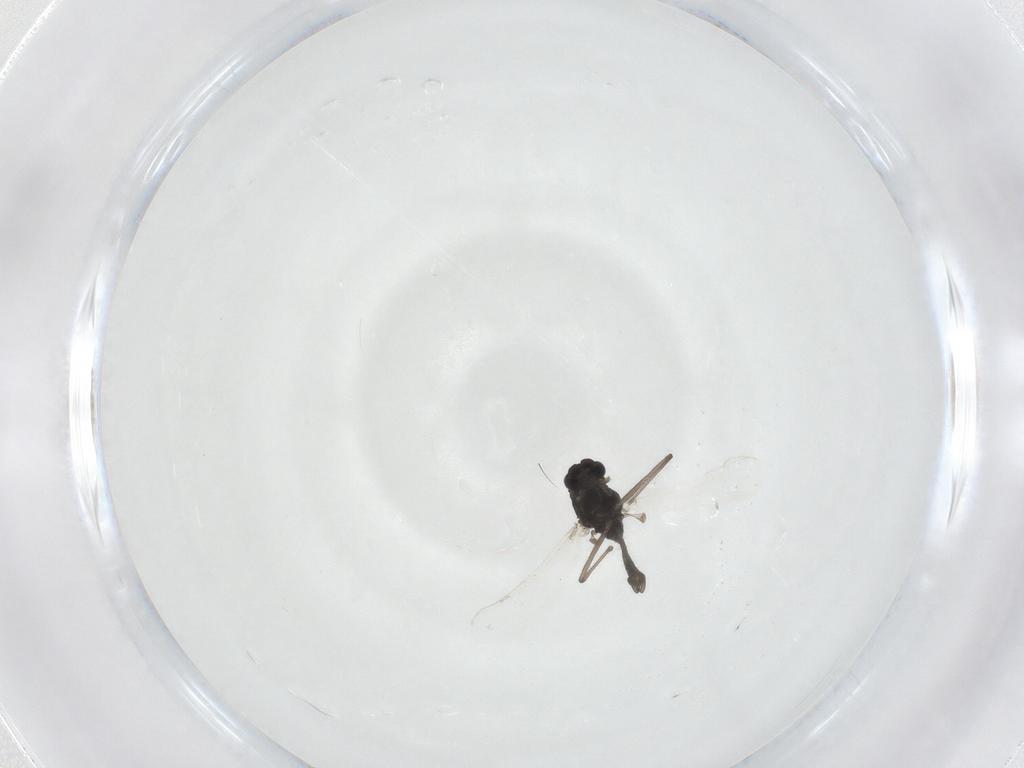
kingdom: Animalia
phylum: Arthropoda
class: Insecta
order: Diptera
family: Chironomidae
